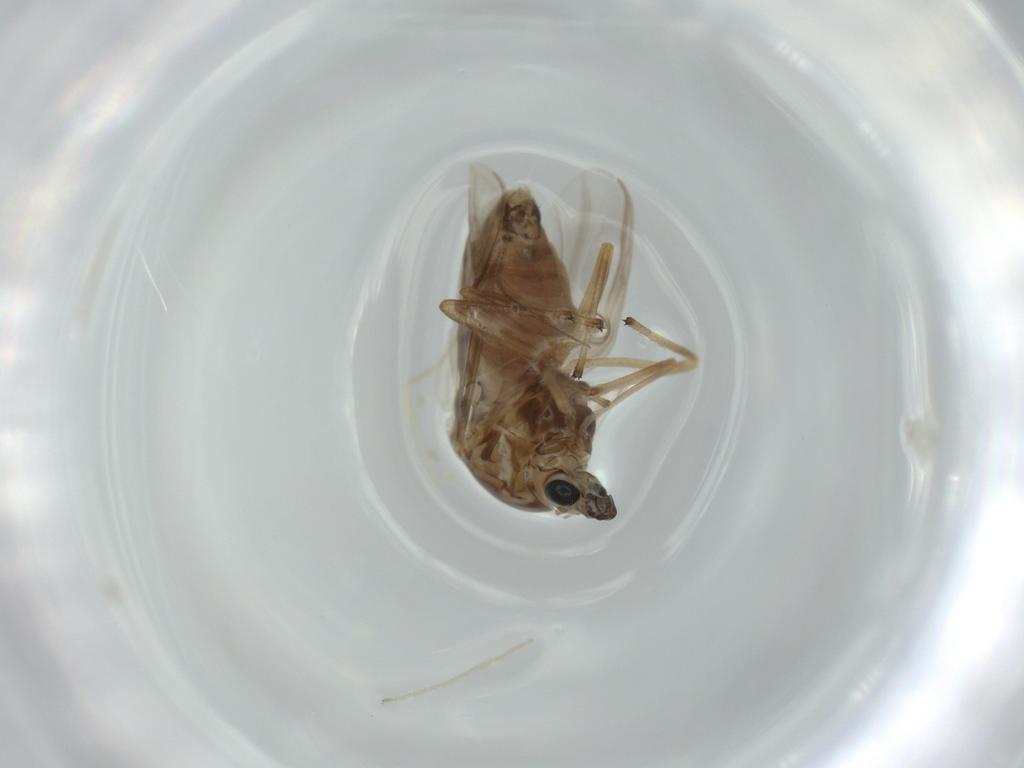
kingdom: Animalia
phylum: Arthropoda
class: Insecta
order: Diptera
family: Chironomidae
